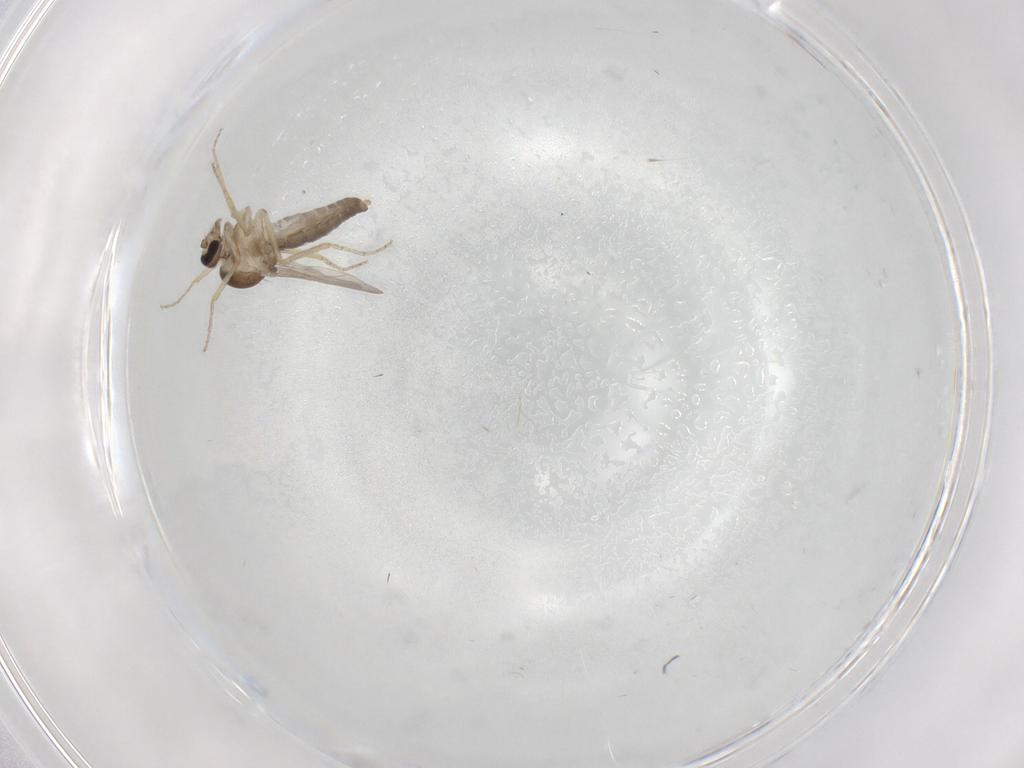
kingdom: Animalia
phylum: Arthropoda
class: Insecta
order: Diptera
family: Ceratopogonidae
